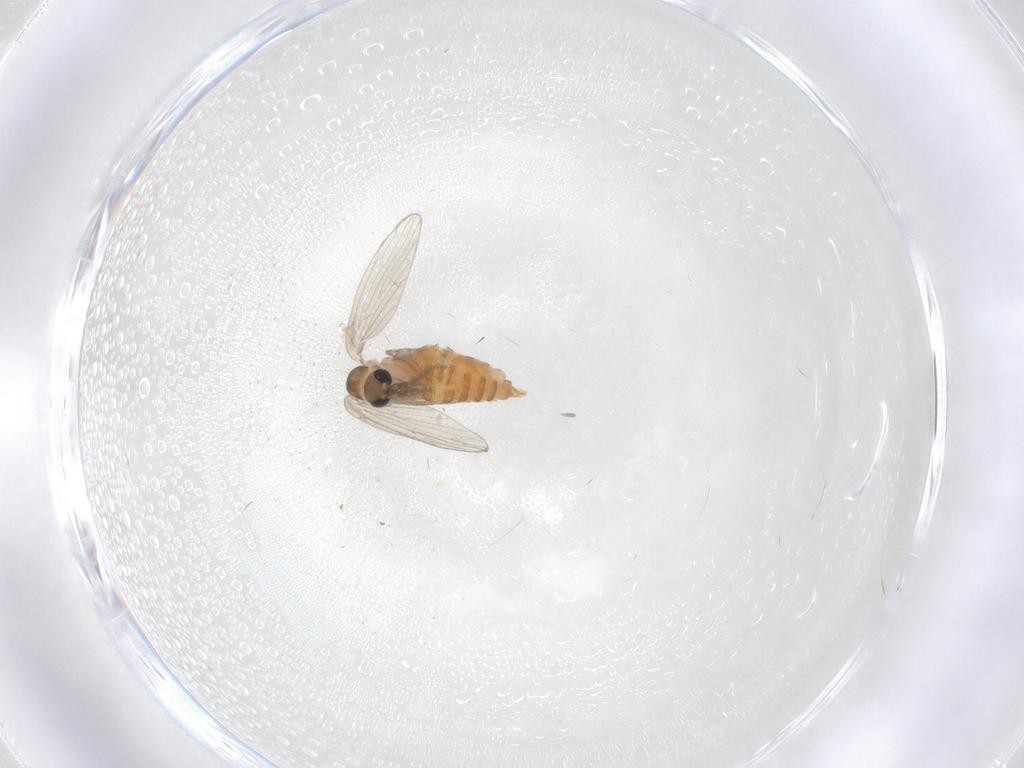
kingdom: Animalia
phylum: Arthropoda
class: Insecta
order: Diptera
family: Psychodidae
